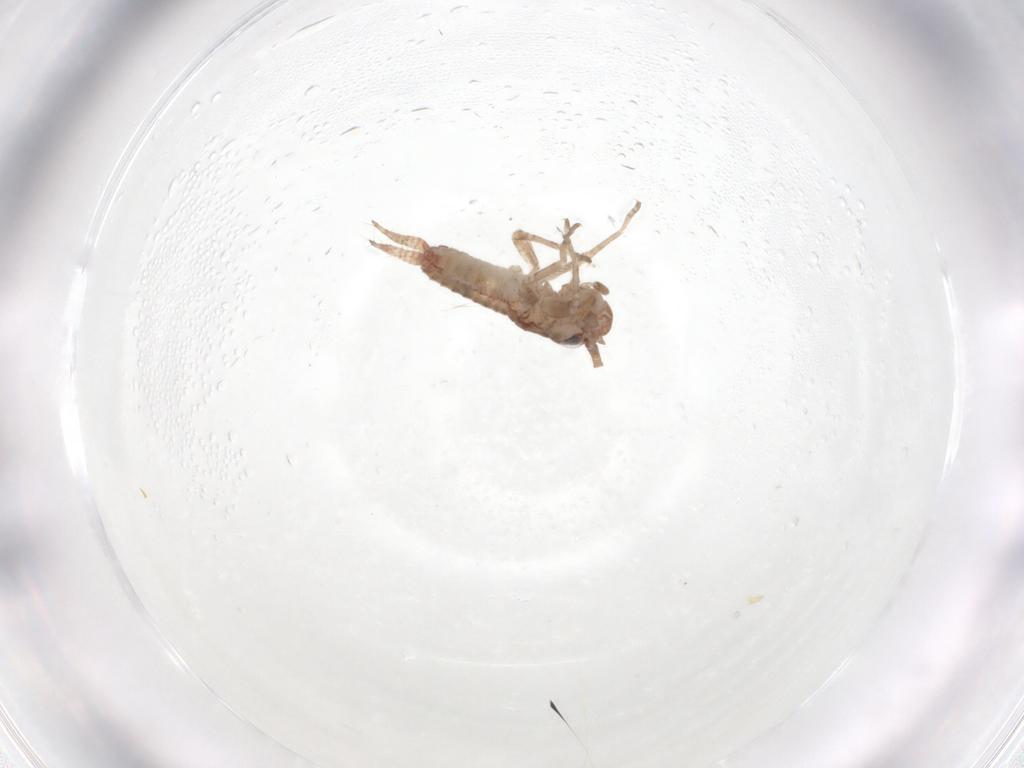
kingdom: Animalia
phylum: Arthropoda
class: Insecta
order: Orthoptera
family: Mogoplistidae
